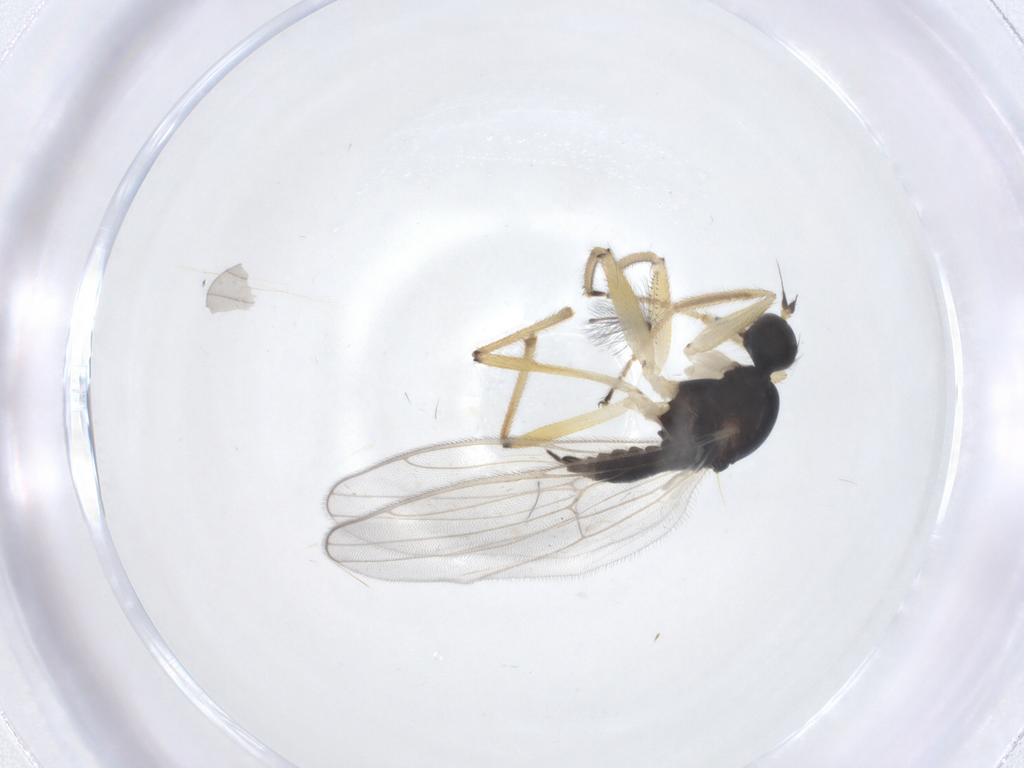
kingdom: Animalia
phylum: Arthropoda
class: Insecta
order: Diptera
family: Hybotidae
